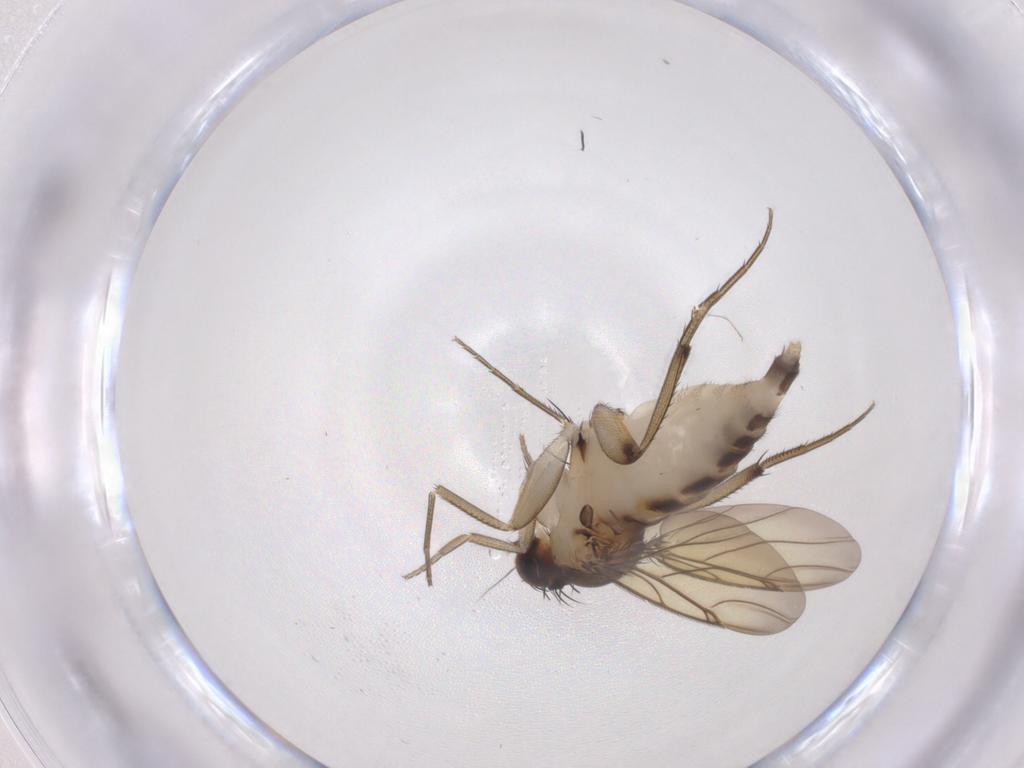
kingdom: Animalia
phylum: Arthropoda
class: Insecta
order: Diptera
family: Phoridae
